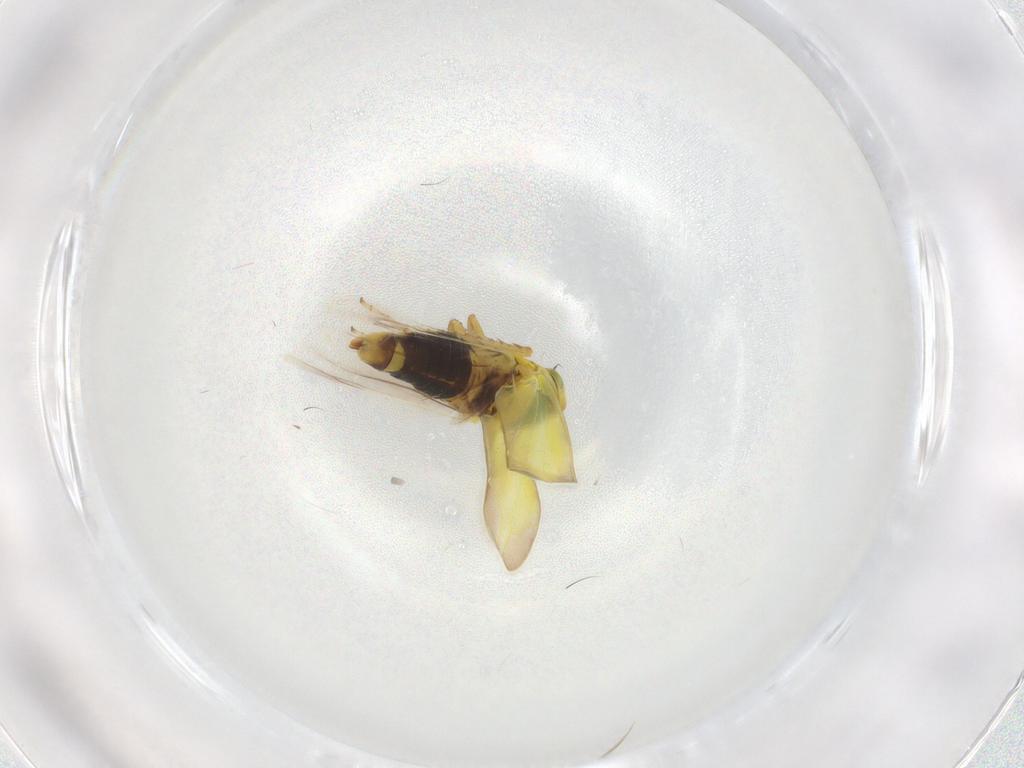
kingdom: Animalia
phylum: Arthropoda
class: Insecta
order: Hemiptera
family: Cicadellidae
